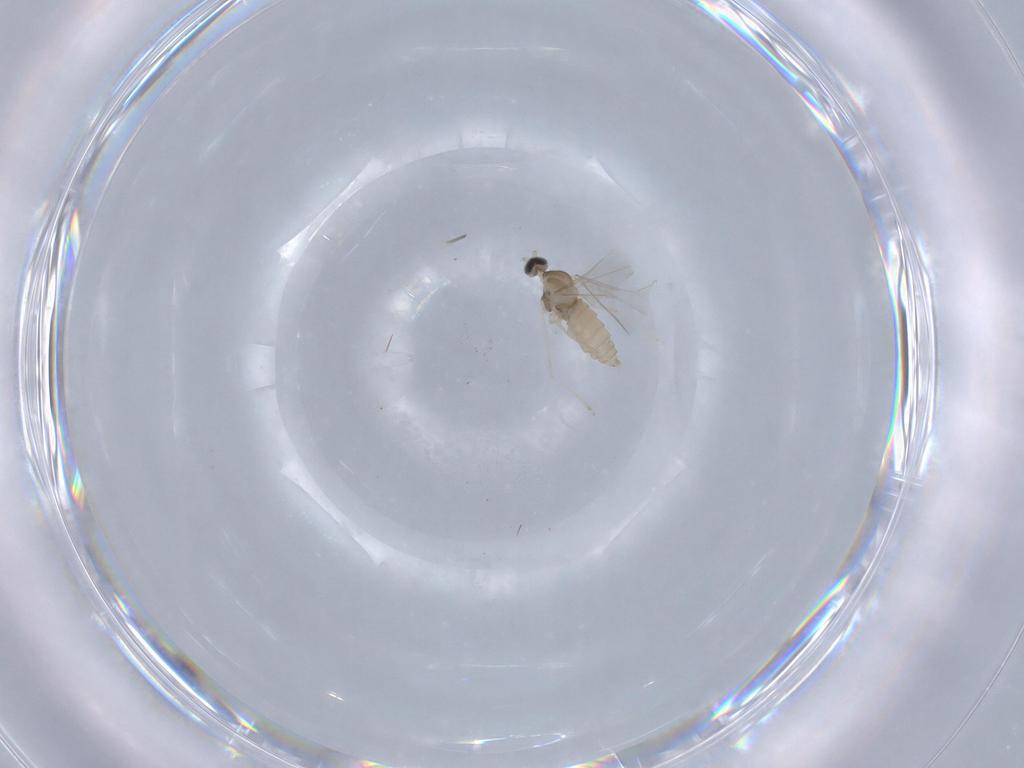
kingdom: Animalia
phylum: Arthropoda
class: Insecta
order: Diptera
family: Cecidomyiidae
